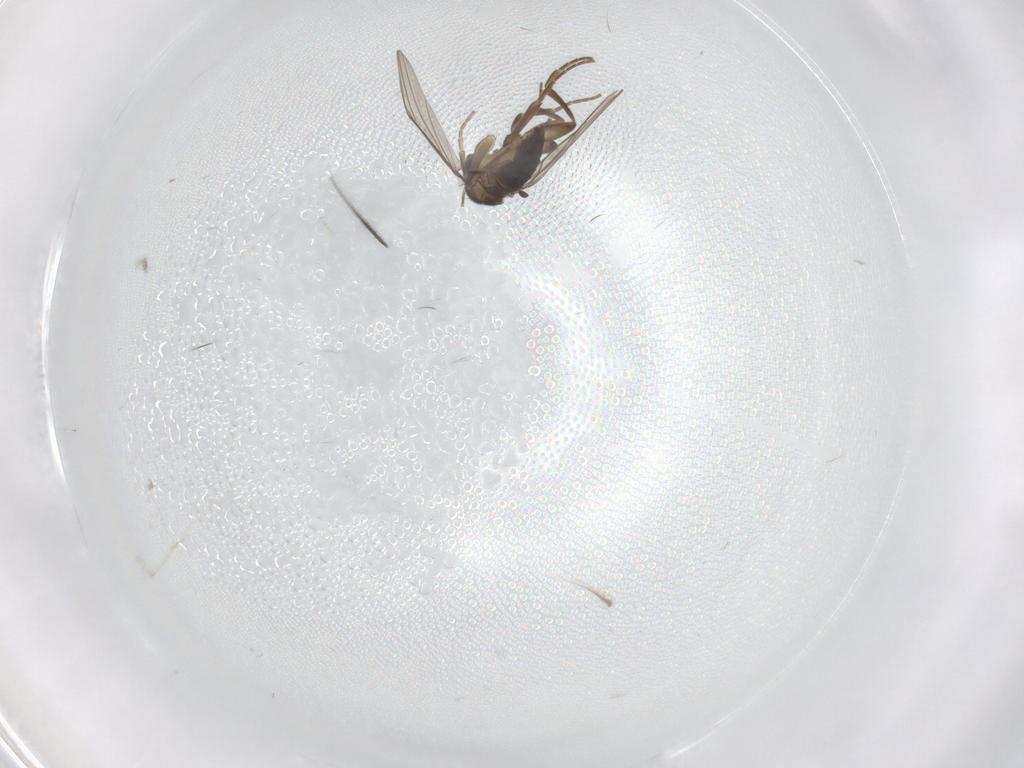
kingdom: Animalia
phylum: Arthropoda
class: Insecta
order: Diptera
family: Phoridae
